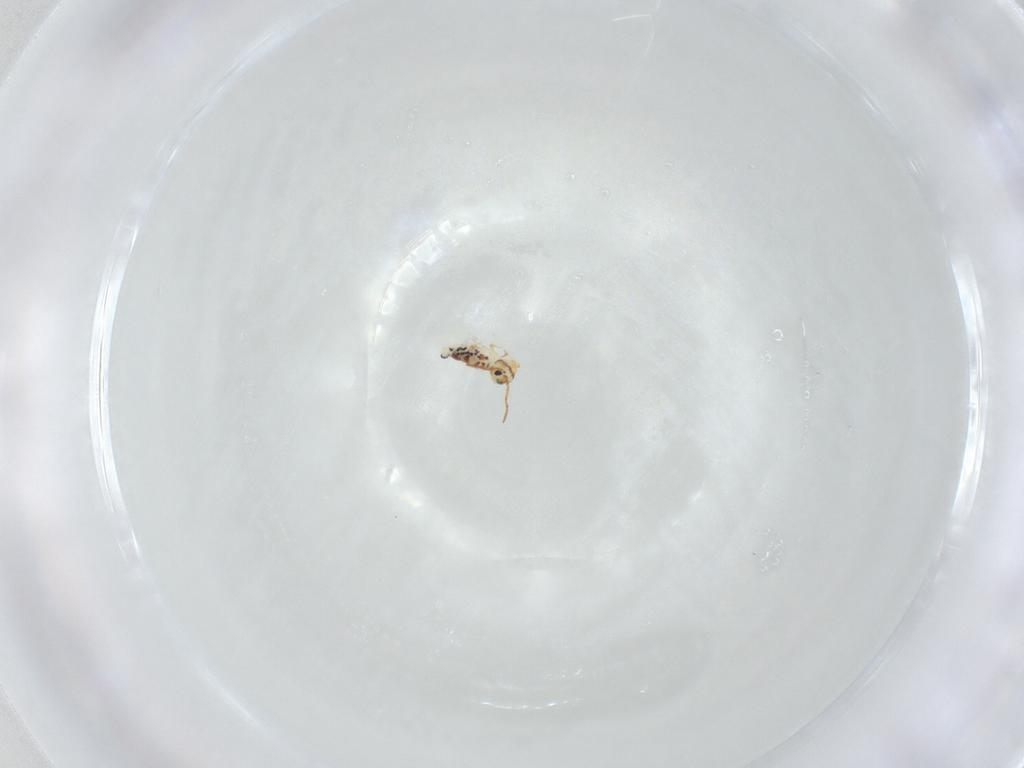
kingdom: Animalia
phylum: Arthropoda
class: Collembola
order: Symphypleona
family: Bourletiellidae
